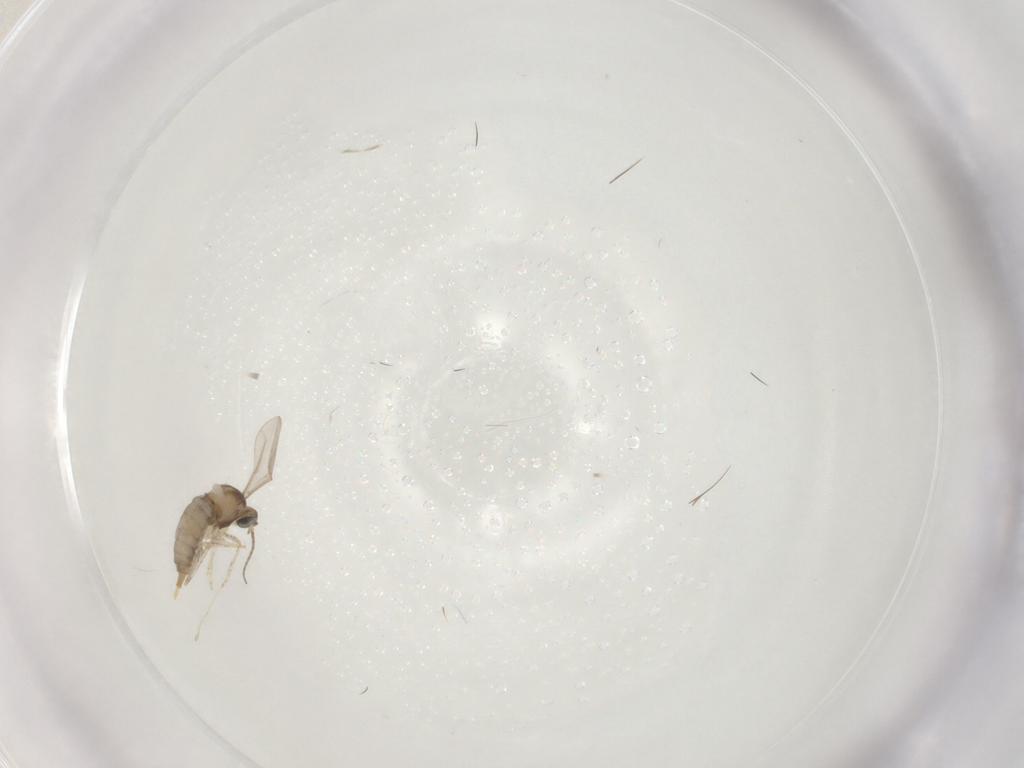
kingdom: Animalia
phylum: Arthropoda
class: Insecta
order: Diptera
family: Cecidomyiidae
